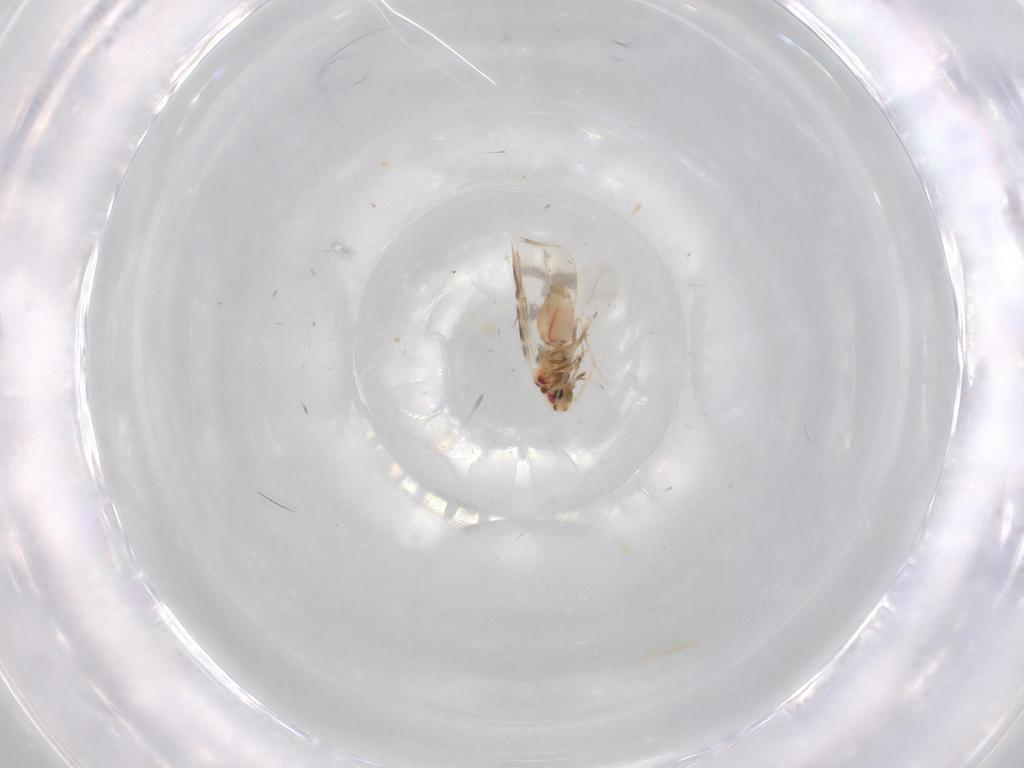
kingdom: Animalia
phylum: Arthropoda
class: Insecta
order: Hemiptera
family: Aleyrodidae
